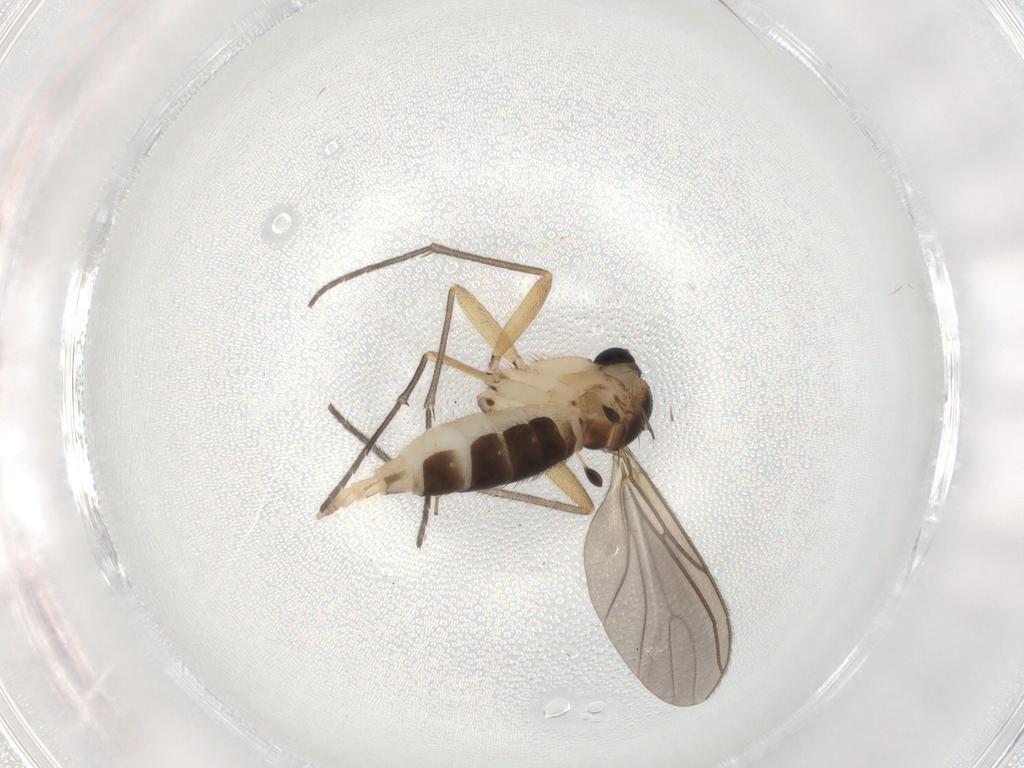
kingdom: Animalia
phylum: Arthropoda
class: Insecta
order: Diptera
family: Sciaridae
